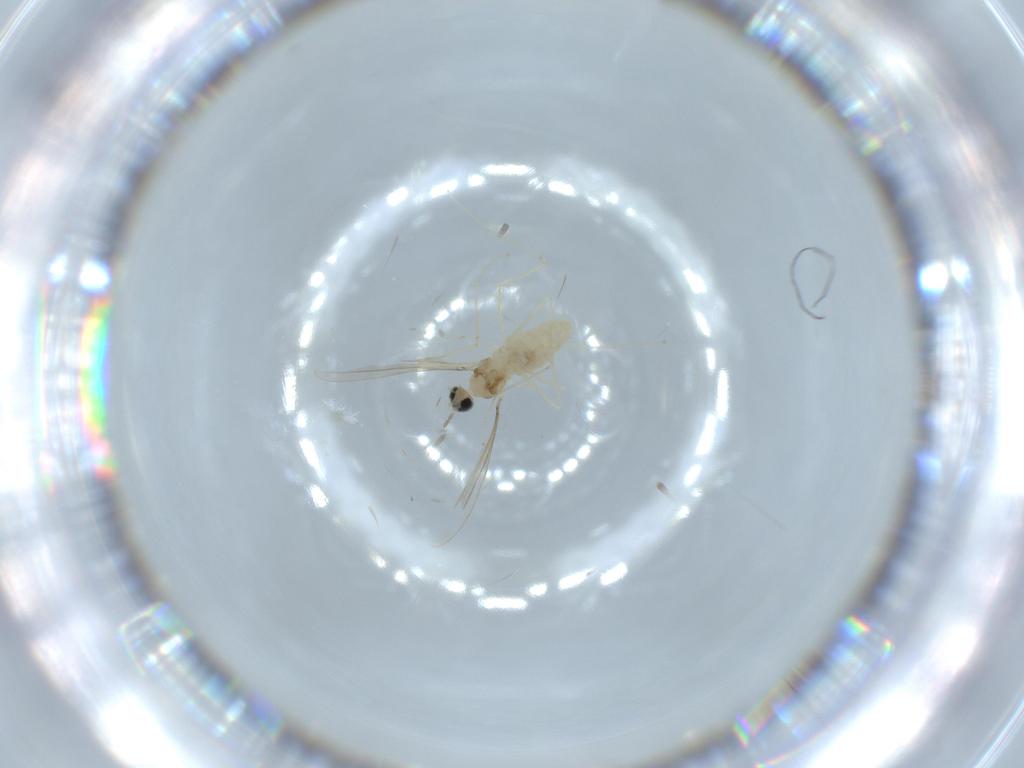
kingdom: Animalia
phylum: Arthropoda
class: Insecta
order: Diptera
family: Cecidomyiidae
